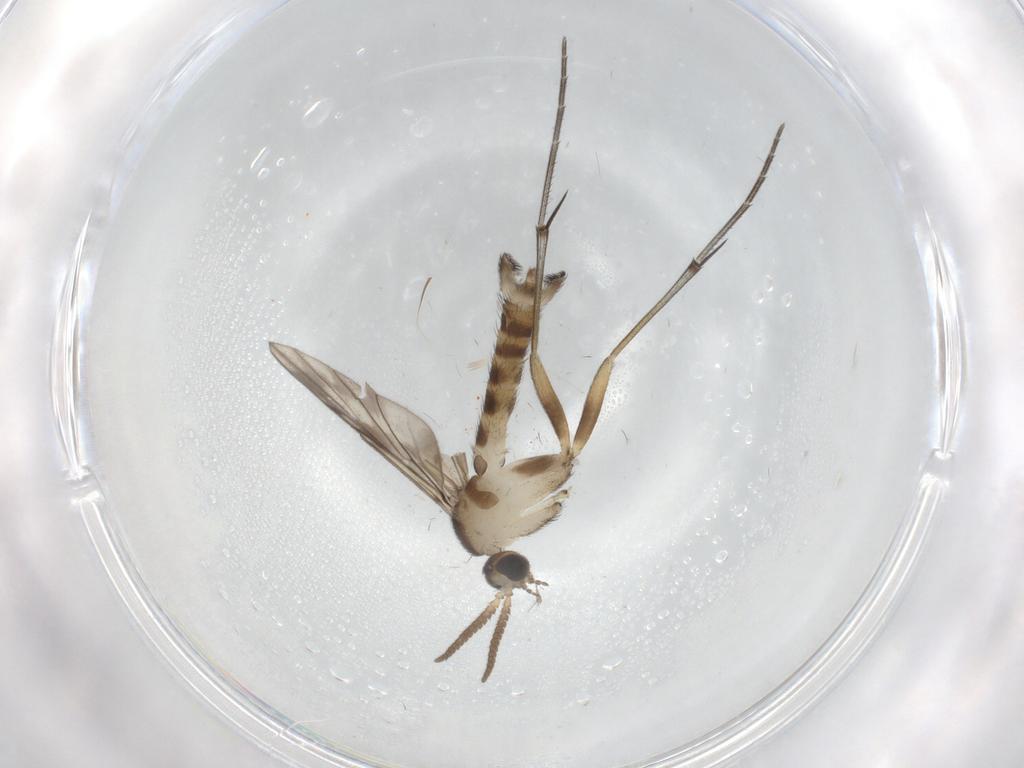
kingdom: Animalia
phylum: Arthropoda
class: Insecta
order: Diptera
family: Keroplatidae
